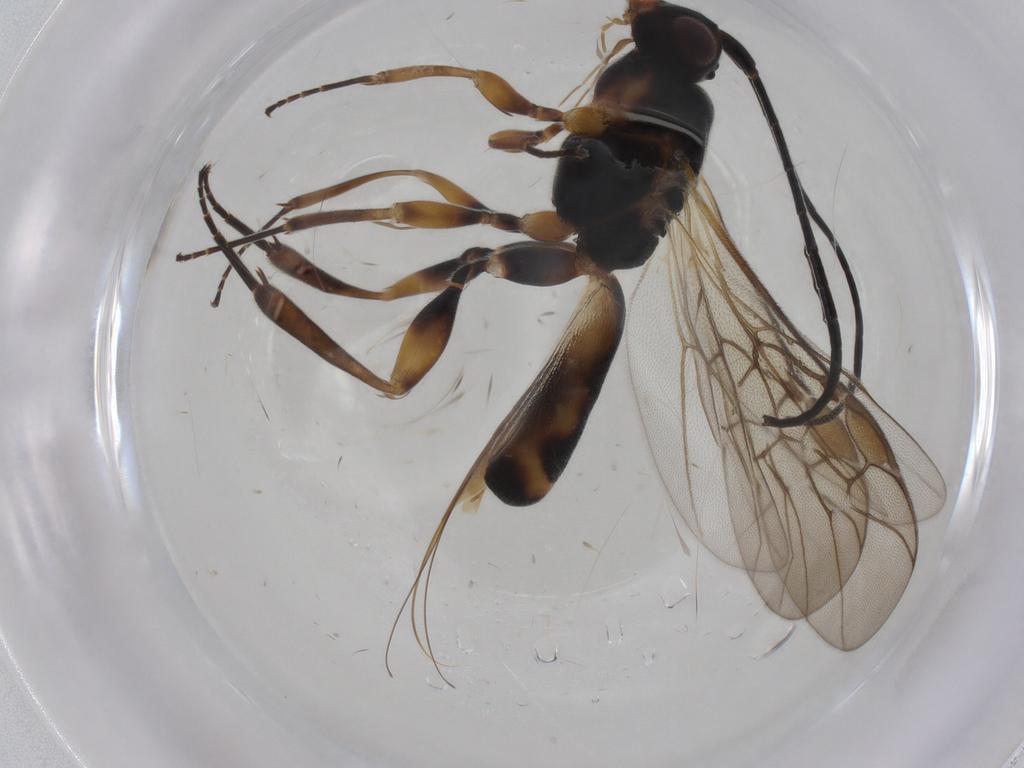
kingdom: Animalia
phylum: Arthropoda
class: Insecta
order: Hymenoptera
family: Braconidae
